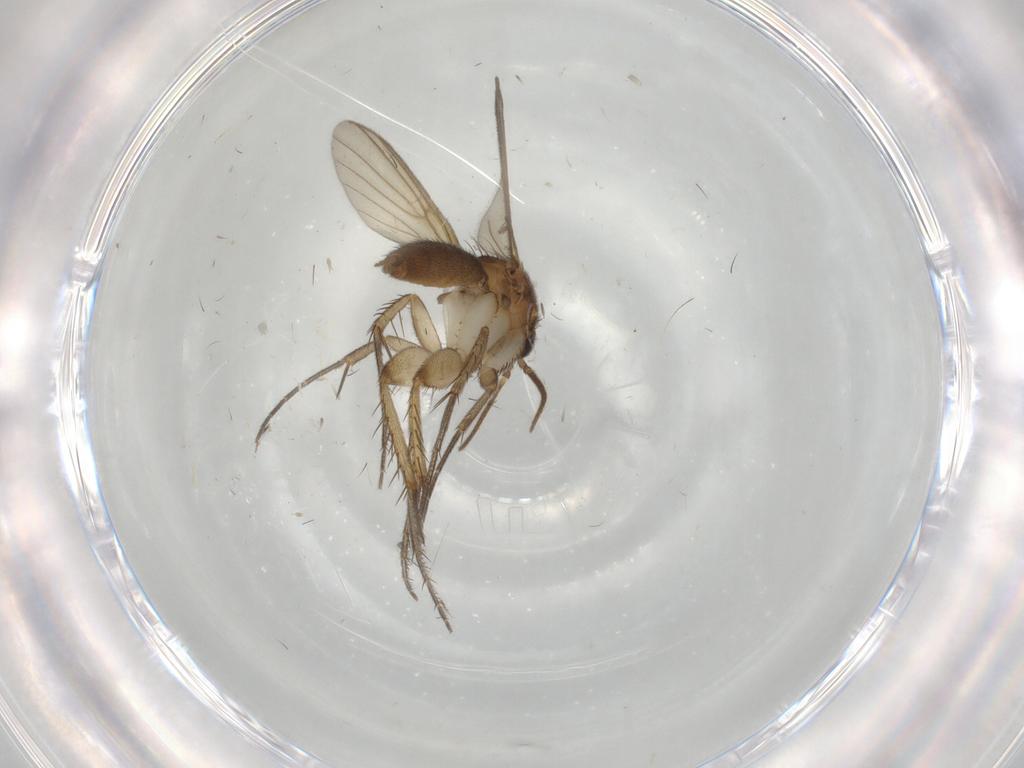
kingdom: Animalia
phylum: Arthropoda
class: Insecta
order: Diptera
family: Mycetophilidae
